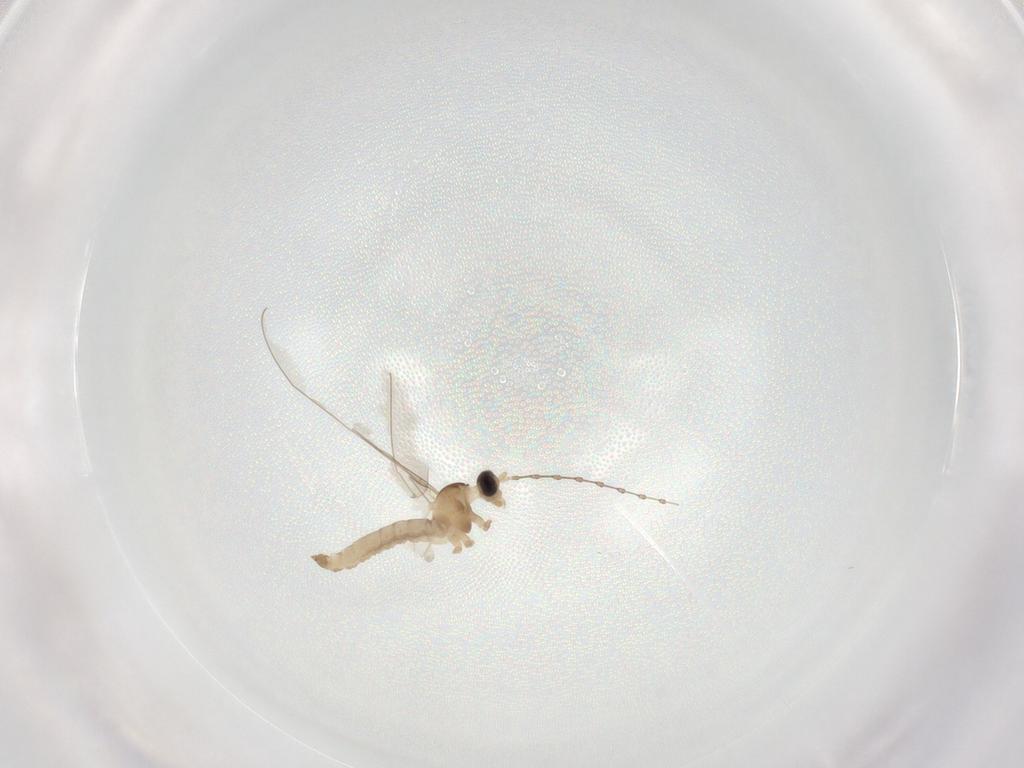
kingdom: Animalia
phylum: Arthropoda
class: Insecta
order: Diptera
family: Cecidomyiidae
